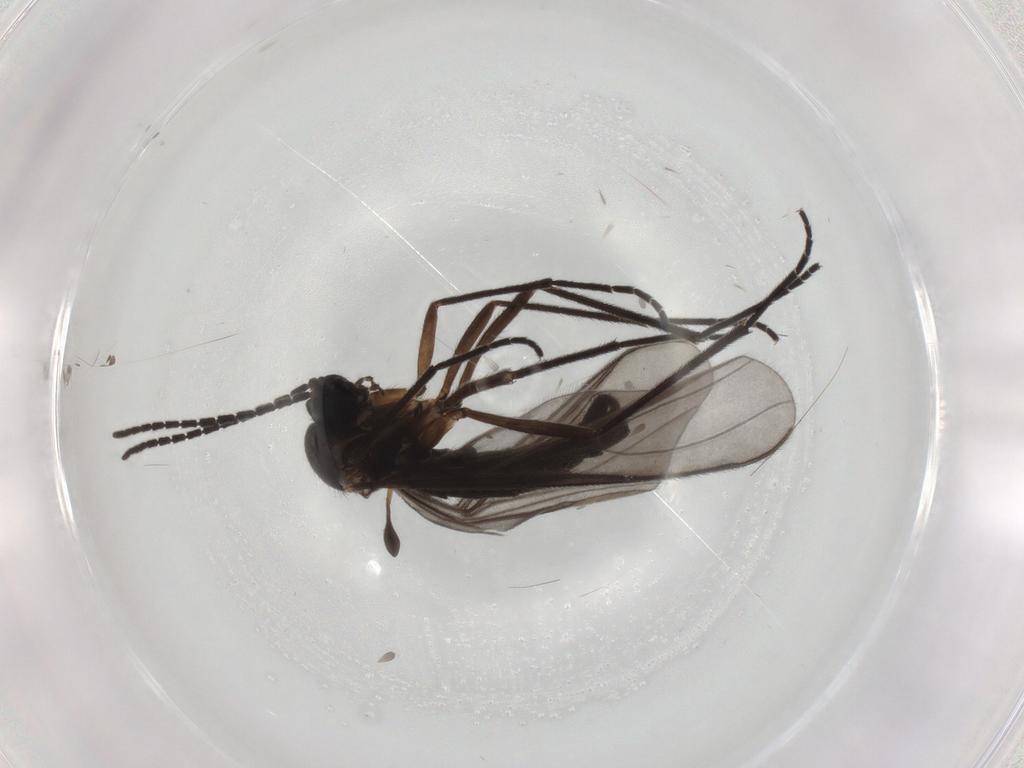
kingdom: Animalia
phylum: Arthropoda
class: Insecta
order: Diptera
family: Sciaridae
